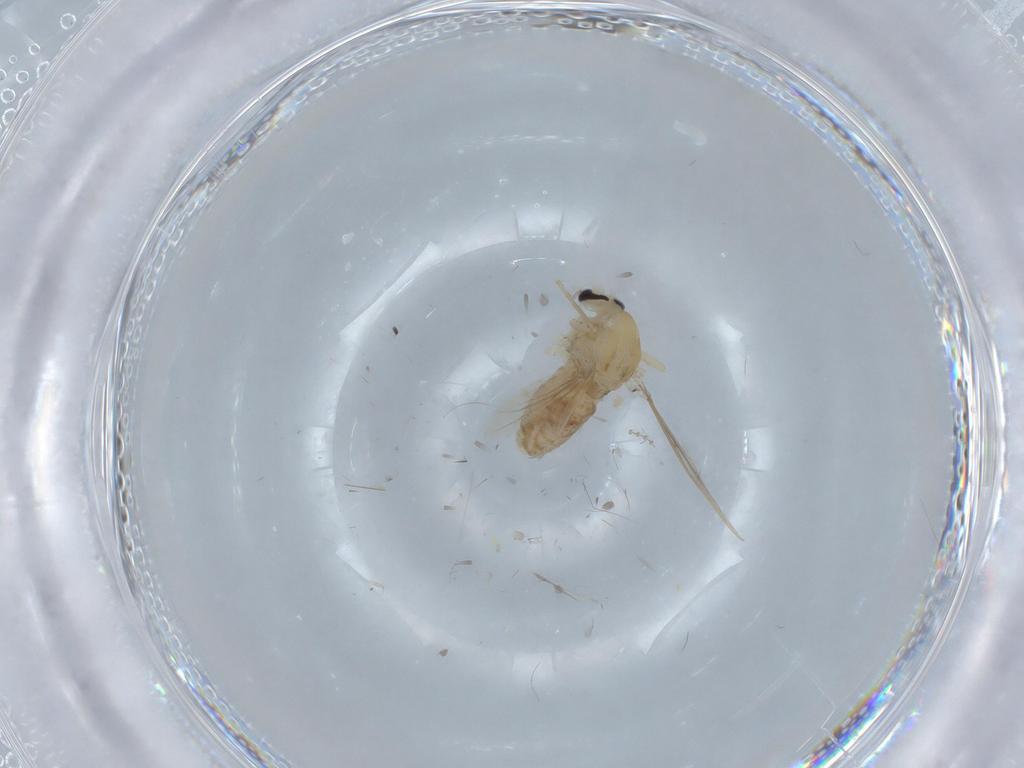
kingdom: Animalia
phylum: Arthropoda
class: Insecta
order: Diptera
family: Chironomidae
